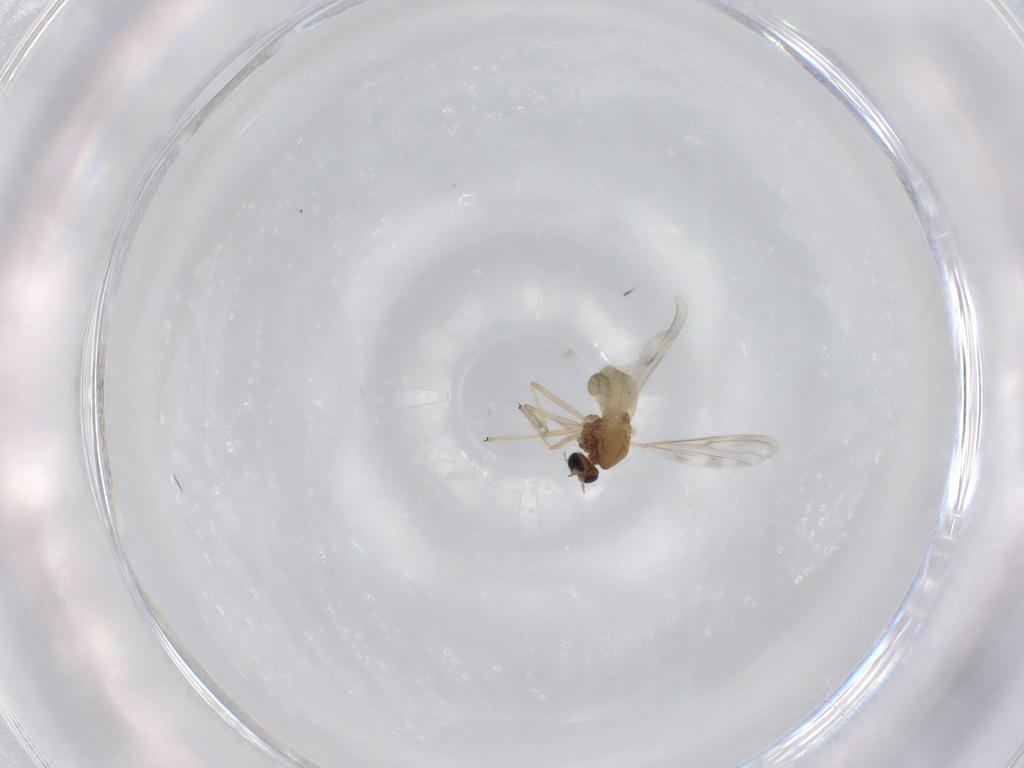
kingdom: Animalia
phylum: Arthropoda
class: Insecta
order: Diptera
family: Chironomidae
